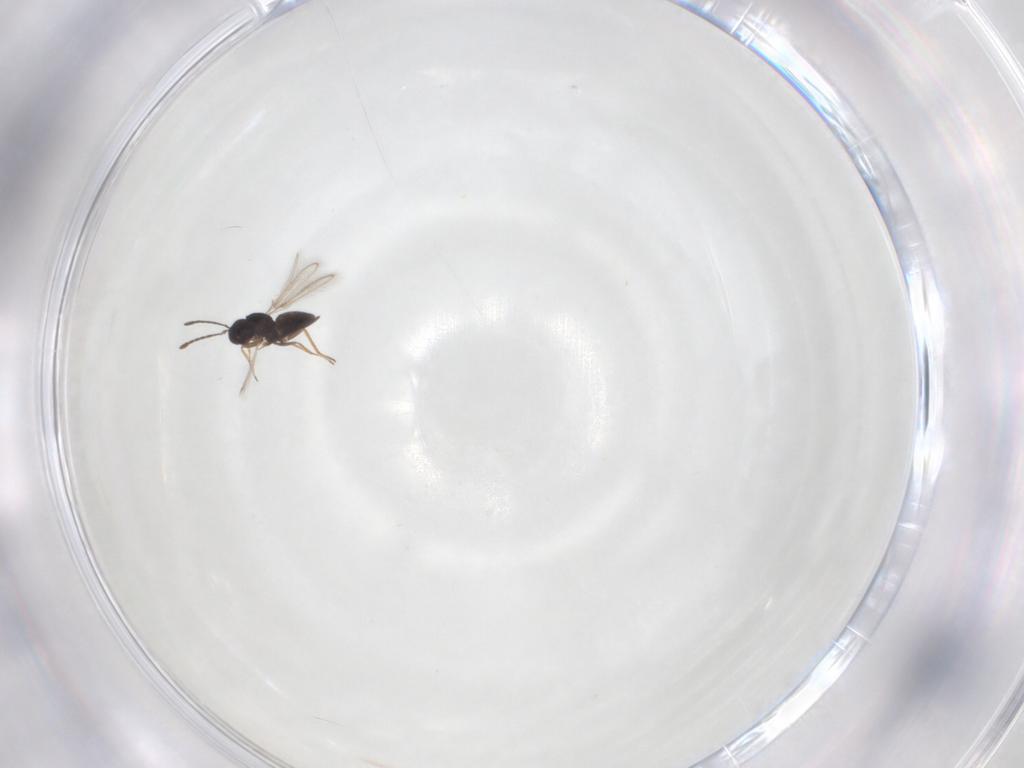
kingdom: Animalia
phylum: Arthropoda
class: Insecta
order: Hymenoptera
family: Mymaridae
